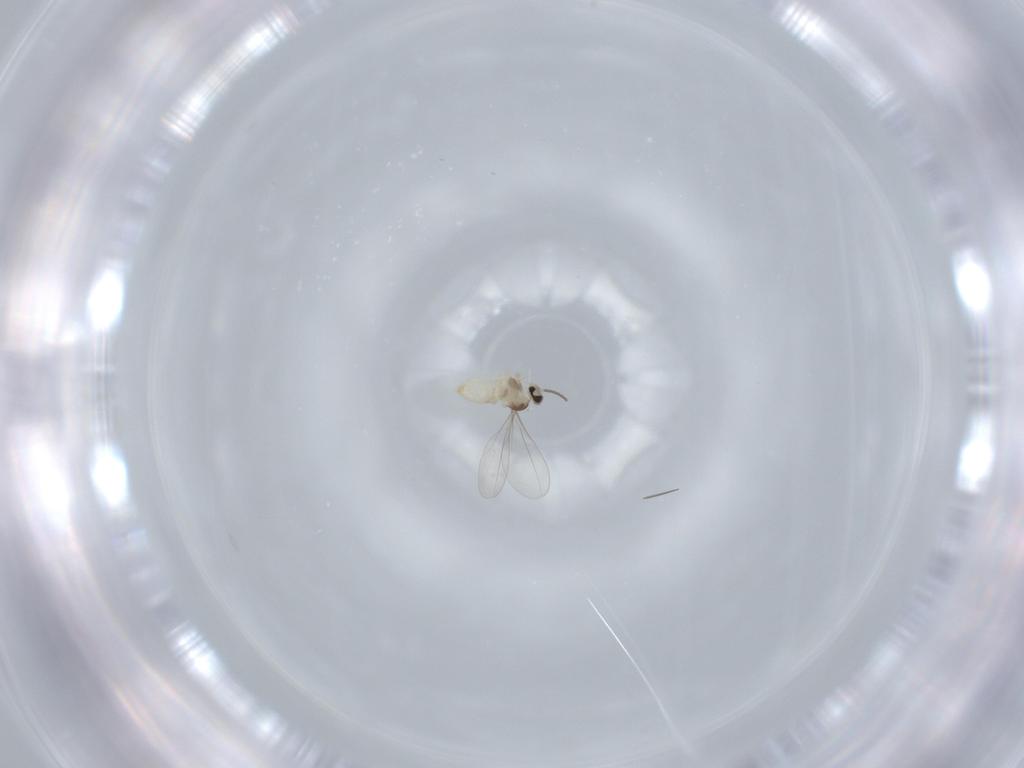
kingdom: Animalia
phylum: Arthropoda
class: Insecta
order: Diptera
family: Cecidomyiidae
